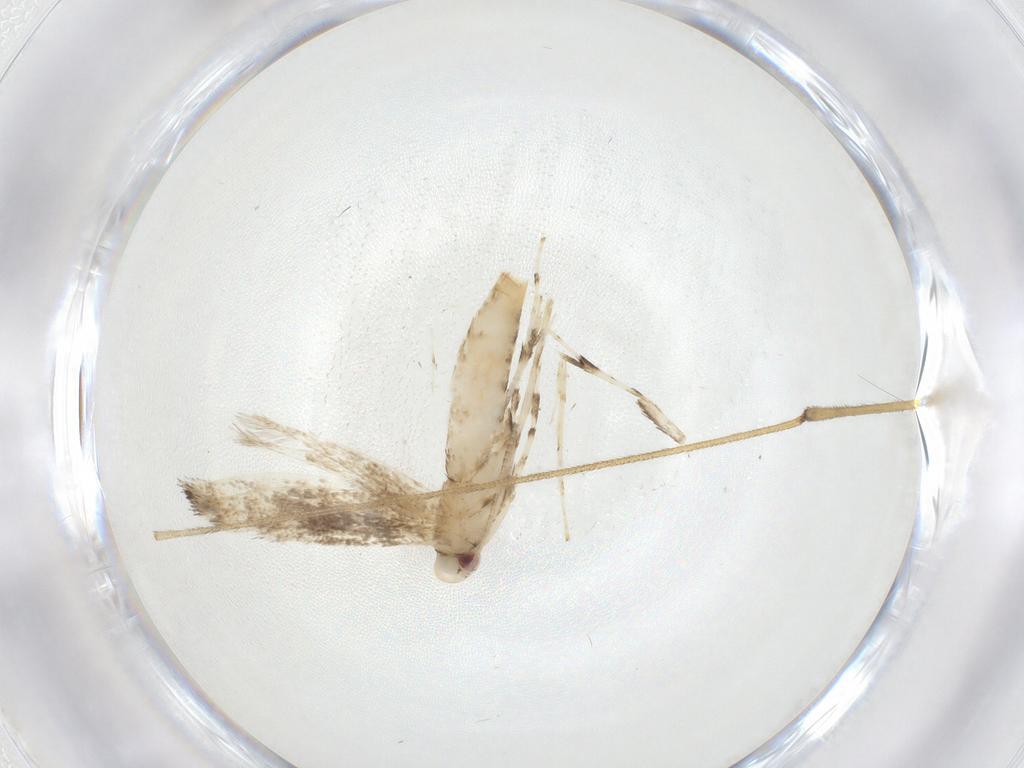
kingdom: Animalia
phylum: Arthropoda
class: Insecta
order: Lepidoptera
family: Gracillariidae
